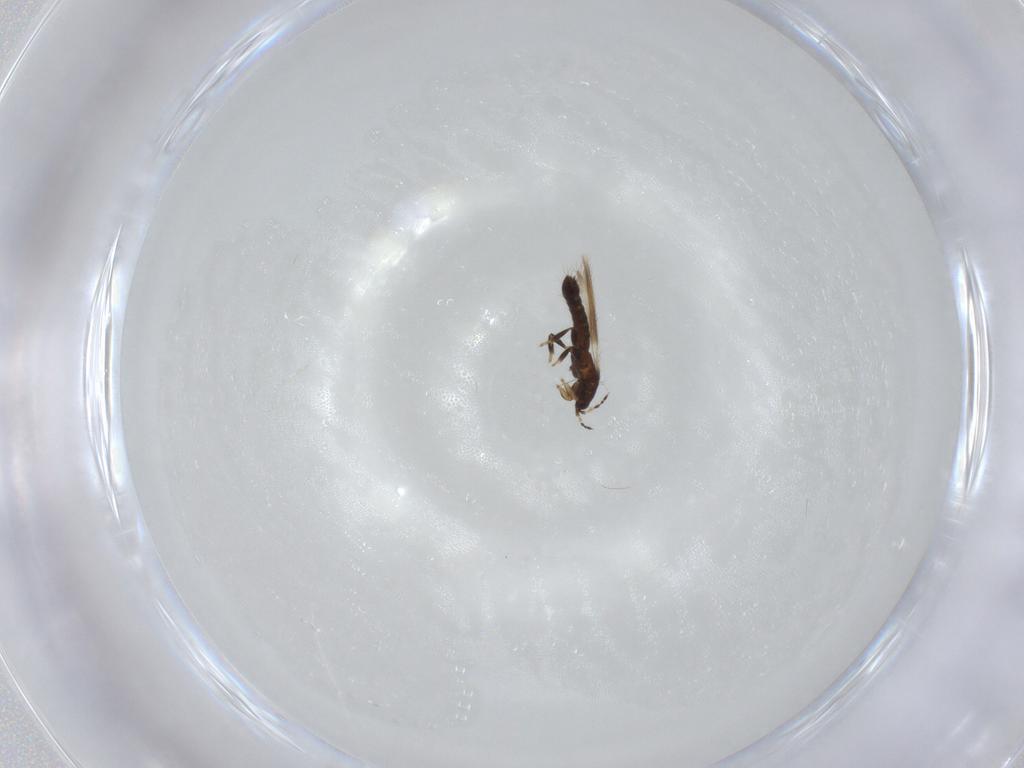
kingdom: Animalia
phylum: Arthropoda
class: Insecta
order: Thysanoptera
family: Thripidae
